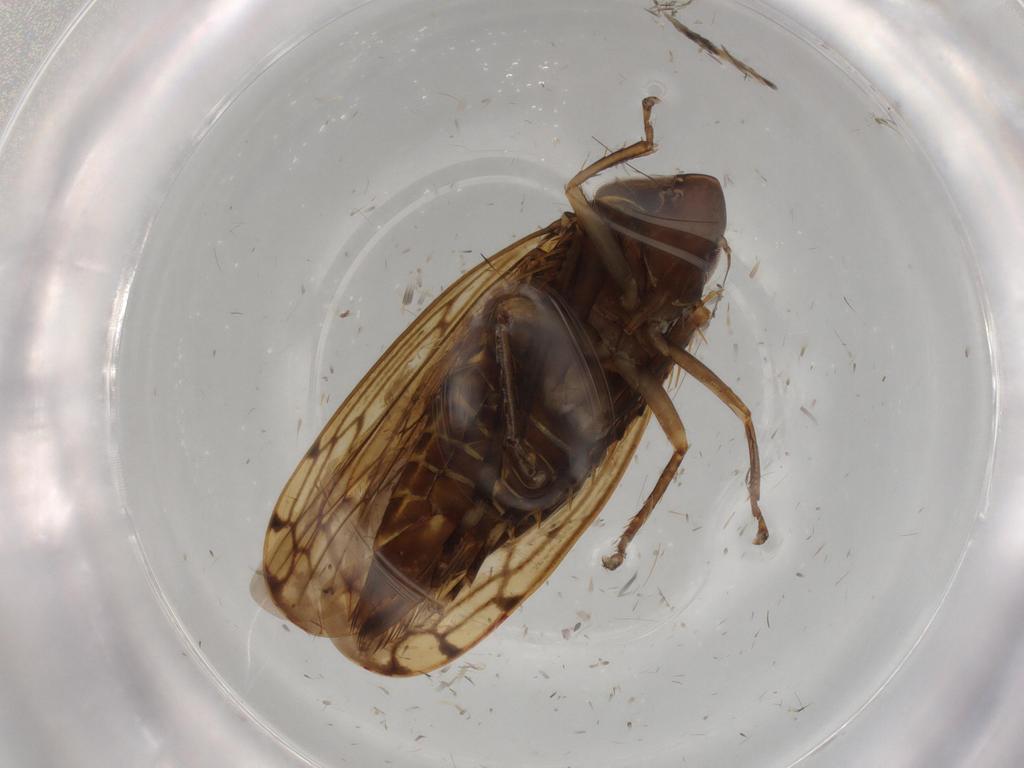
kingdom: Animalia
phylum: Arthropoda
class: Insecta
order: Hemiptera
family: Cicadellidae
